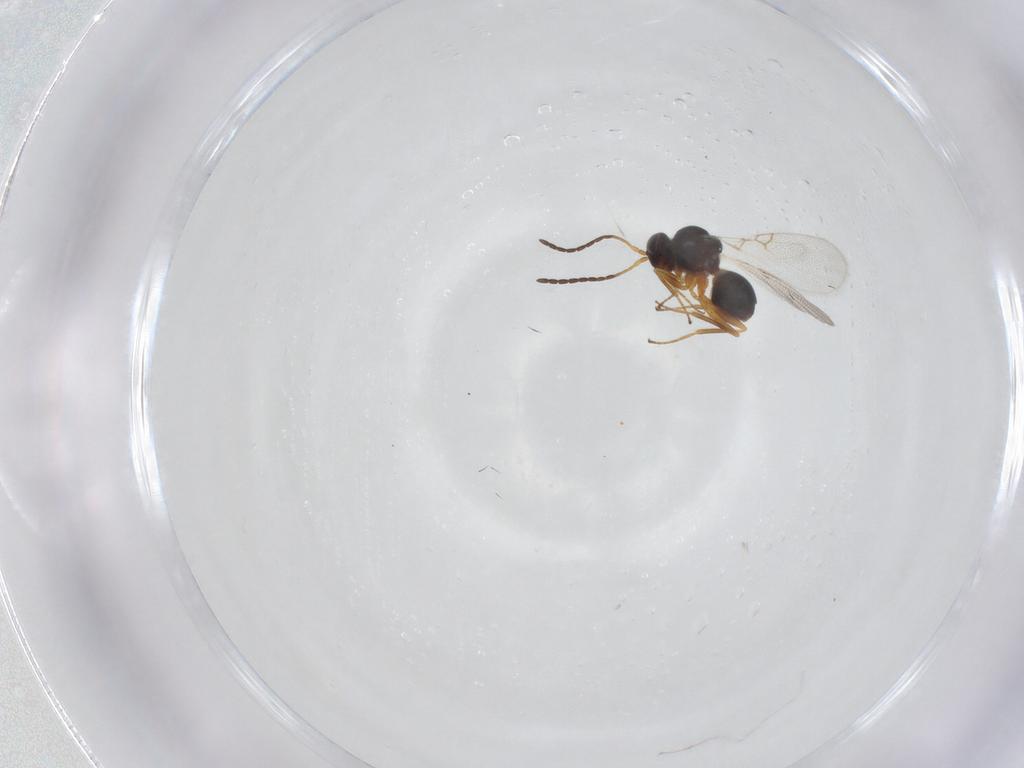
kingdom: Animalia
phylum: Arthropoda
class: Insecta
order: Hymenoptera
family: Figitidae
